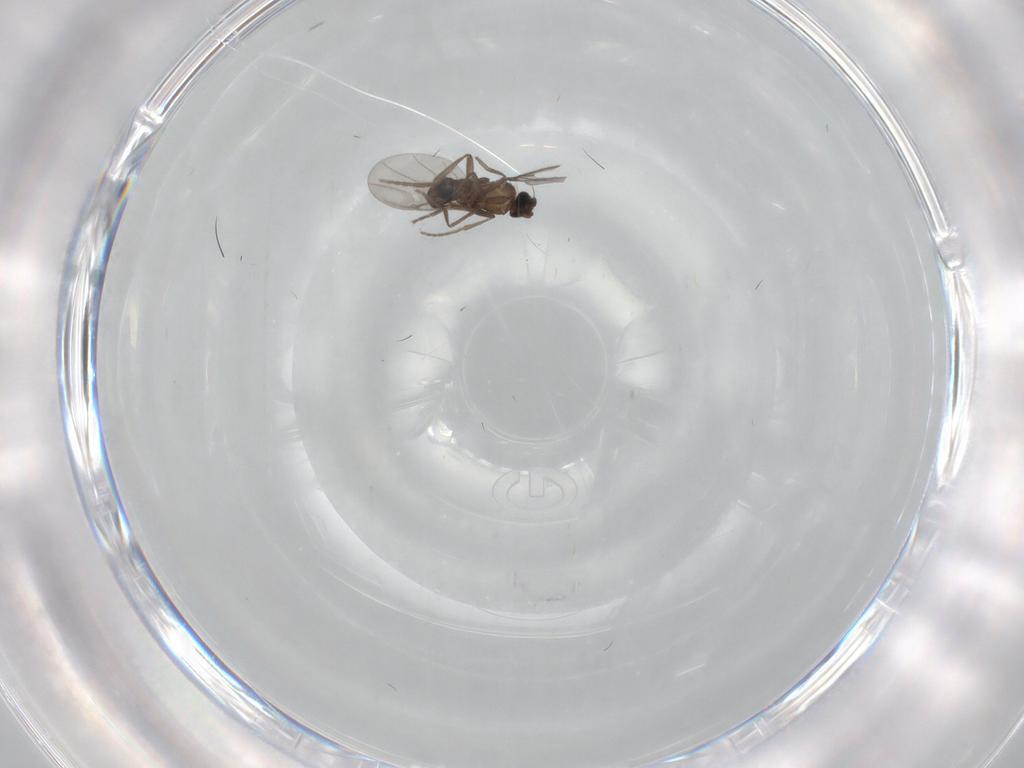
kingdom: Animalia
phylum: Arthropoda
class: Insecta
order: Diptera
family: Phoridae
